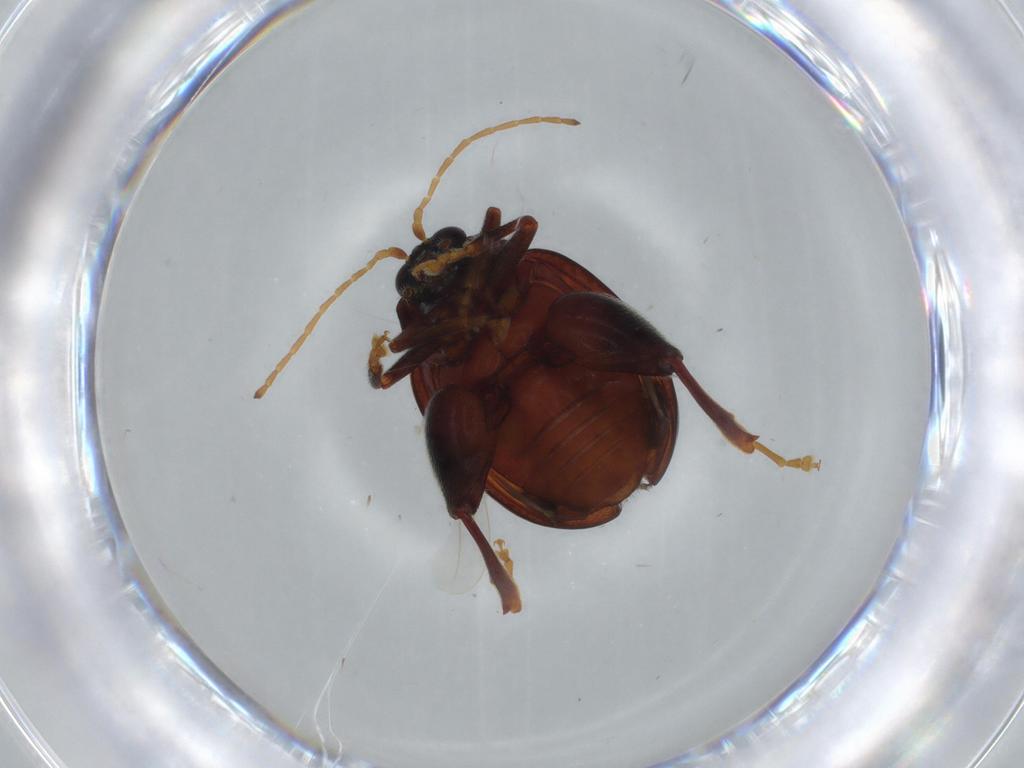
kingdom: Animalia
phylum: Arthropoda
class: Insecta
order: Coleoptera
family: Chrysomelidae
